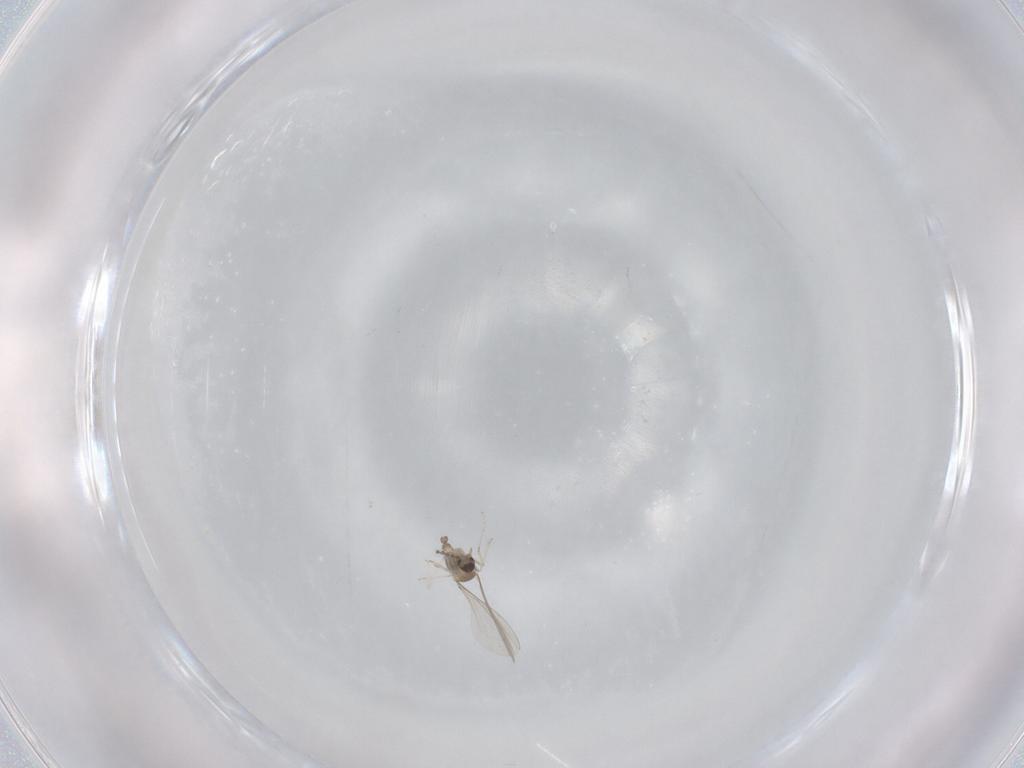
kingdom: Animalia
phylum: Arthropoda
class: Insecta
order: Diptera
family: Cecidomyiidae
